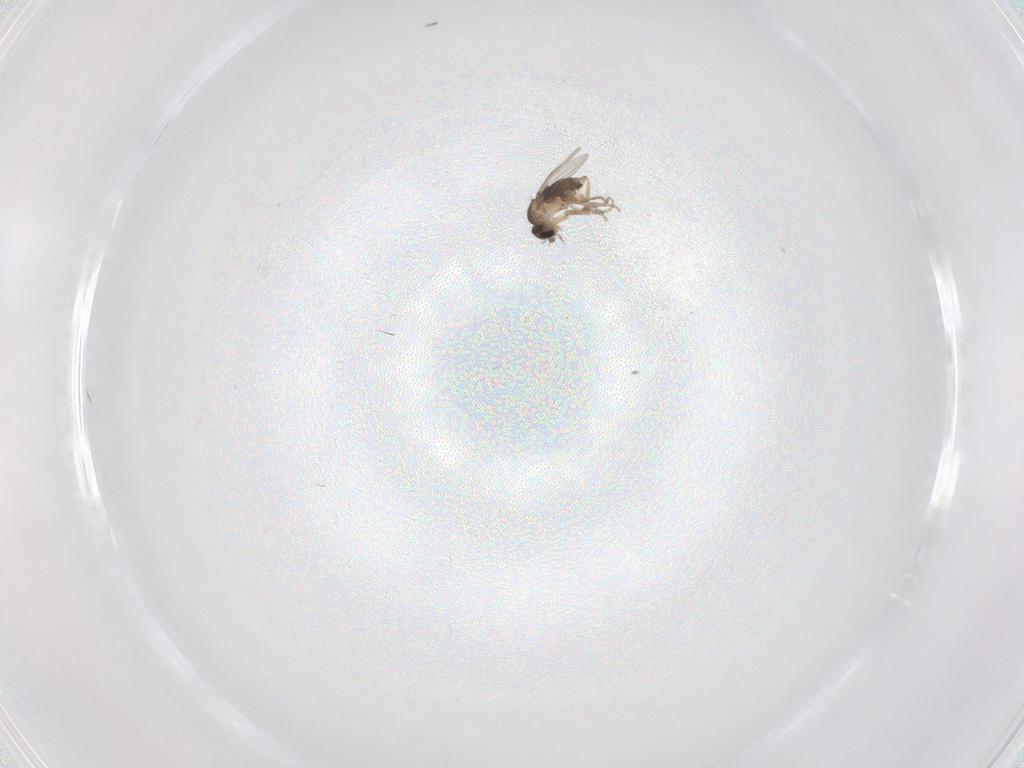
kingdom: Animalia
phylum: Arthropoda
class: Insecta
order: Diptera
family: Phoridae
